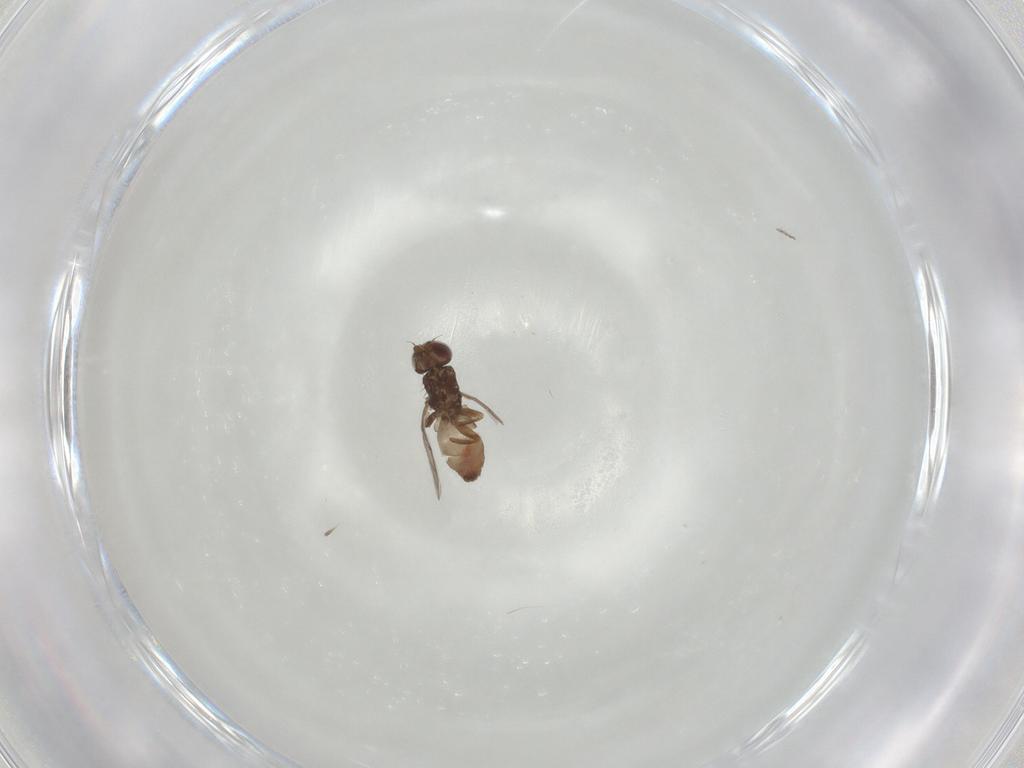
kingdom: Animalia
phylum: Arthropoda
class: Insecta
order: Diptera
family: Chloropidae
